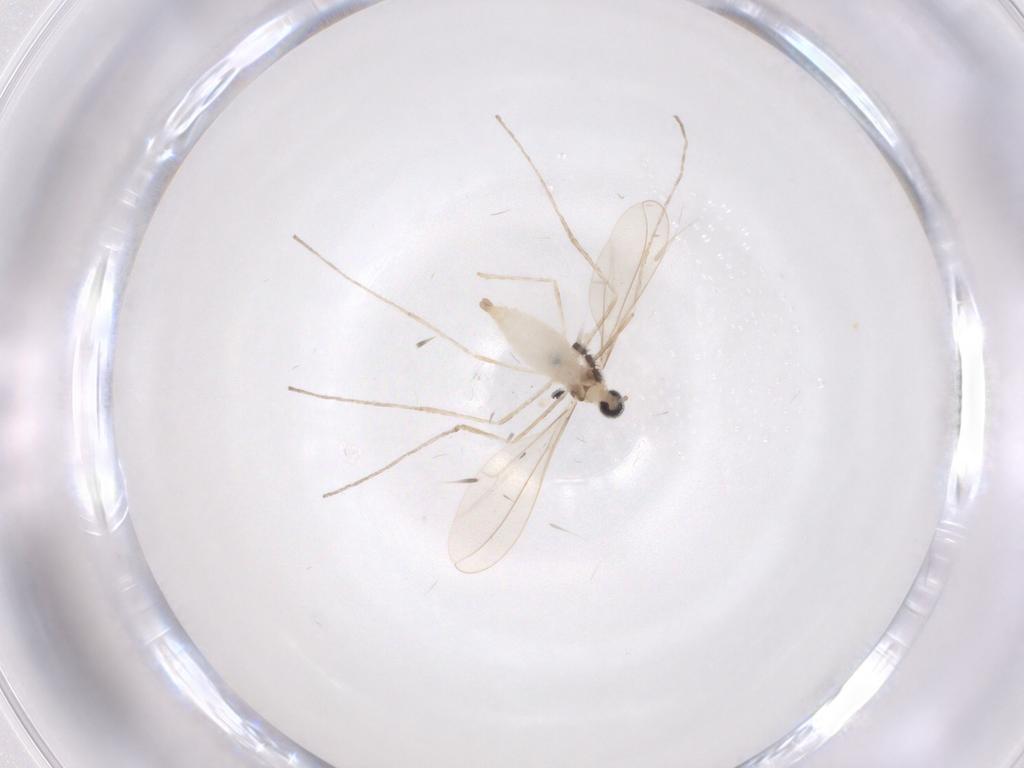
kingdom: Animalia
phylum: Arthropoda
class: Insecta
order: Diptera
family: Cecidomyiidae
